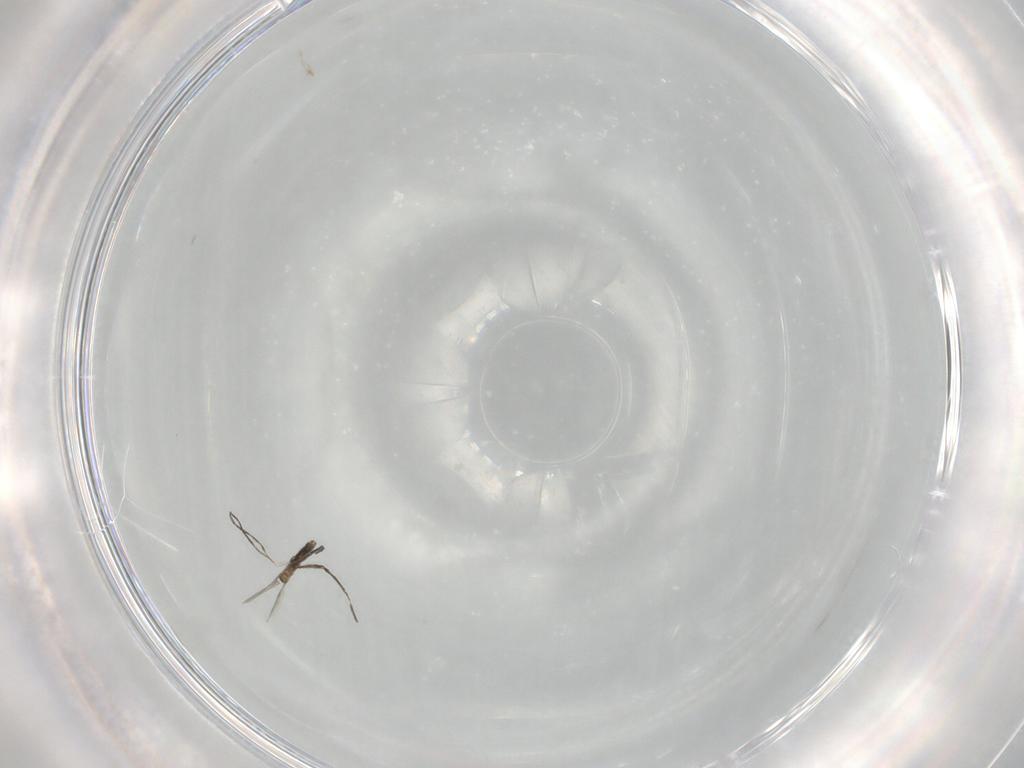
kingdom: Animalia
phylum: Arthropoda
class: Insecta
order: Diptera
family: Cecidomyiidae
